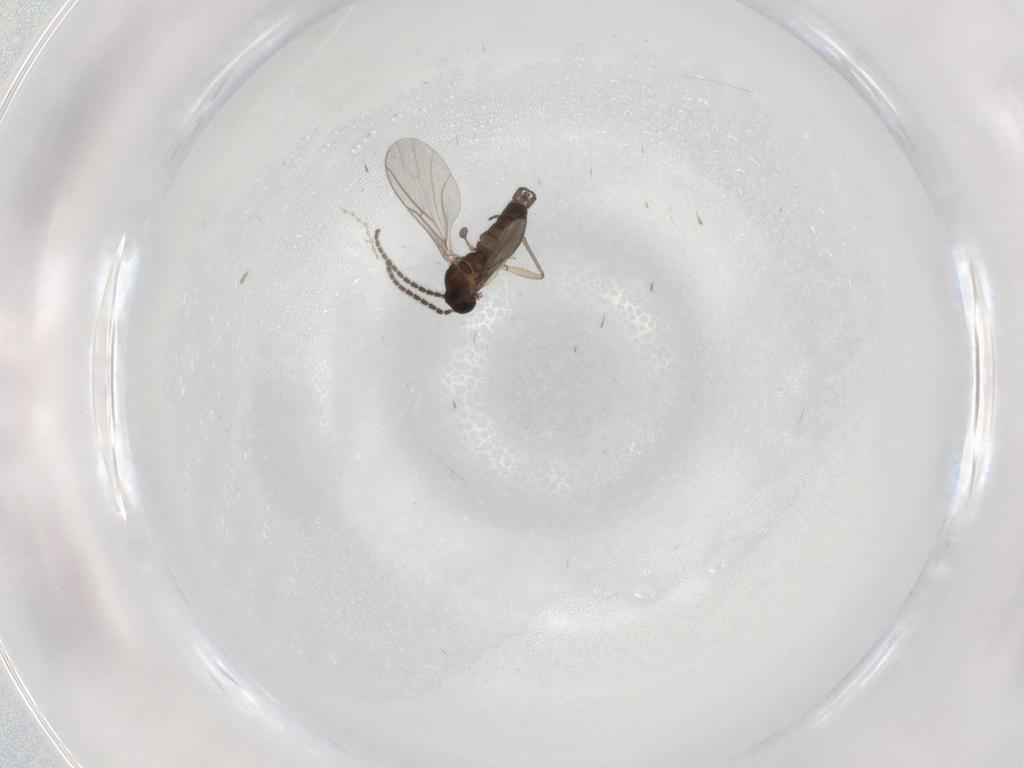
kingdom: Animalia
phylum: Arthropoda
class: Insecta
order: Diptera
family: Sciaridae
